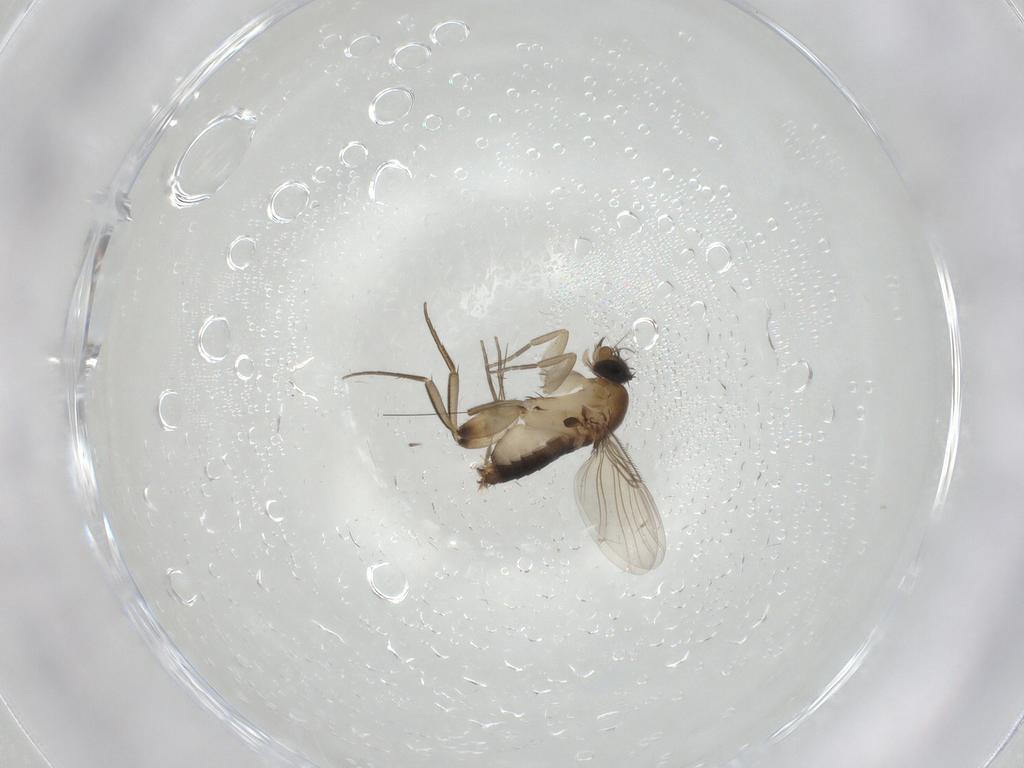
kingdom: Animalia
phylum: Arthropoda
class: Insecta
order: Diptera
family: Phoridae
